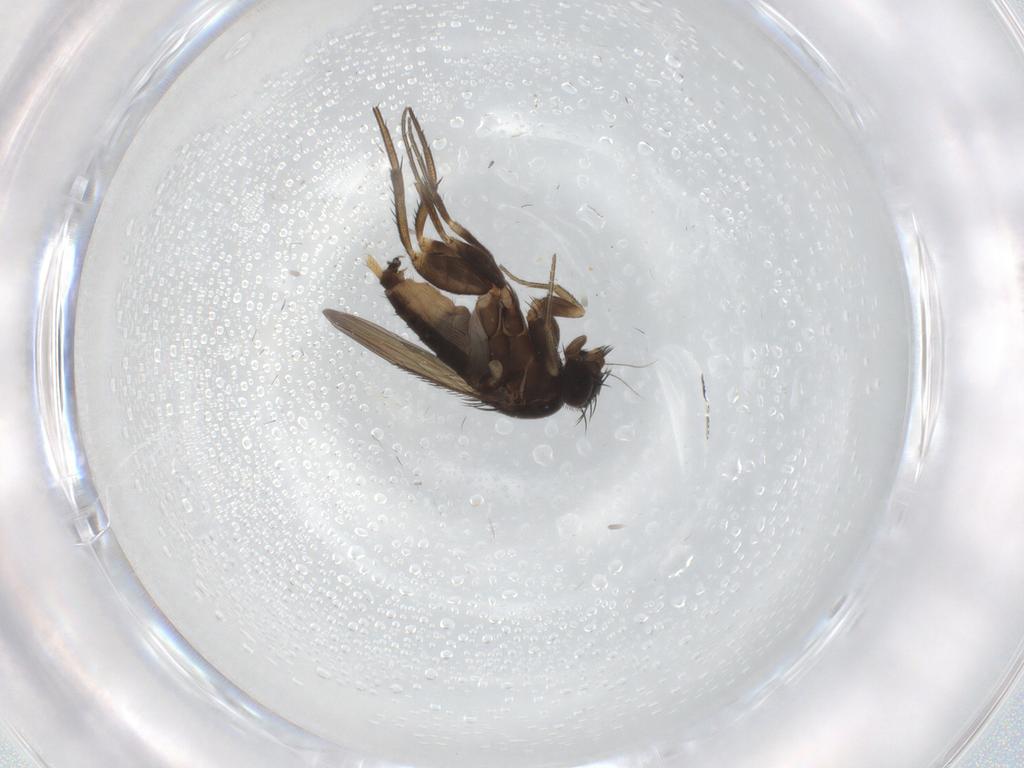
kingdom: Animalia
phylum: Arthropoda
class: Insecta
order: Diptera
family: Phoridae
